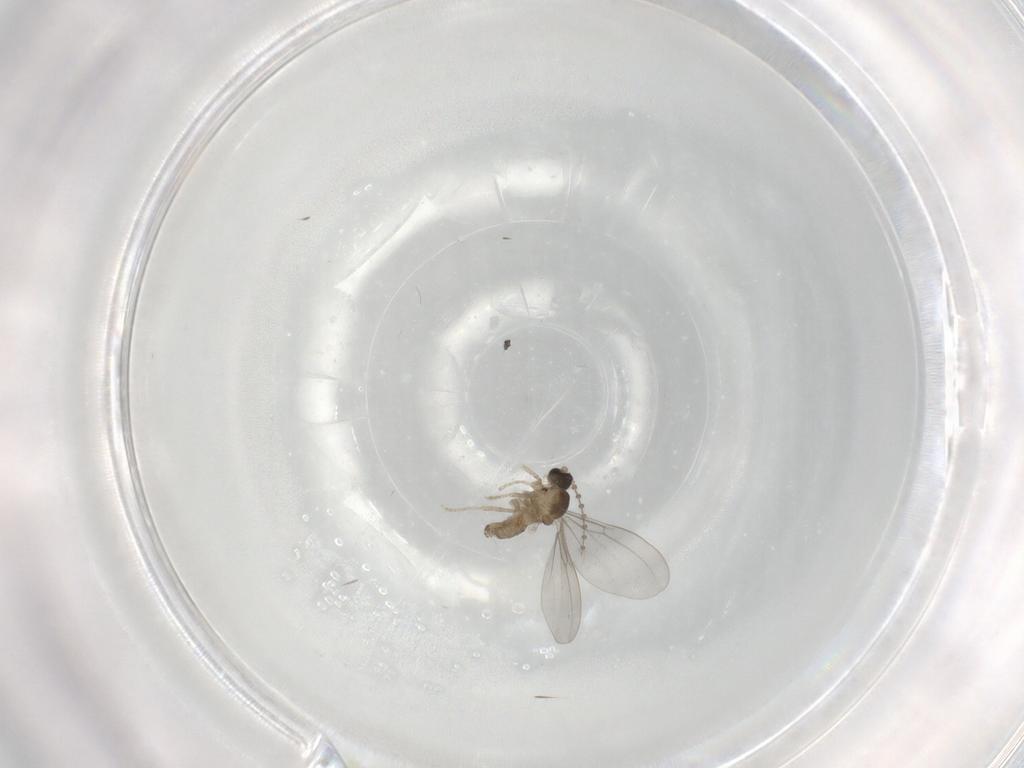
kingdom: Animalia
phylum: Arthropoda
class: Insecta
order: Diptera
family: Cecidomyiidae
